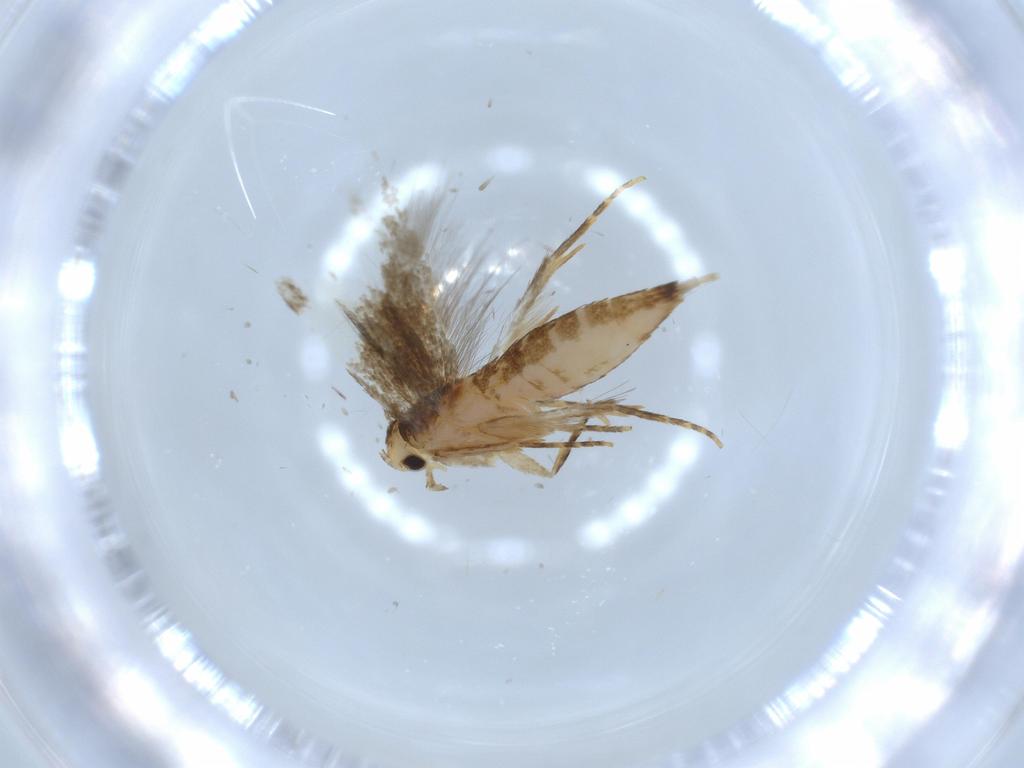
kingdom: Animalia
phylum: Arthropoda
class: Insecta
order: Lepidoptera
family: Tineidae
